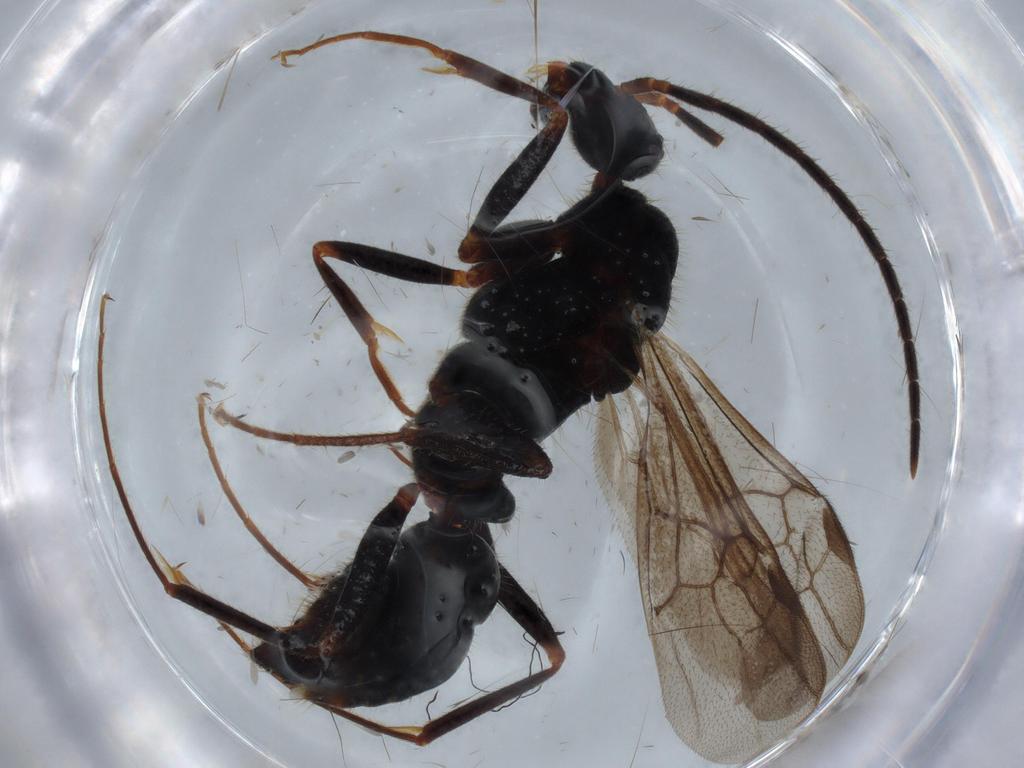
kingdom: Animalia
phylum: Arthropoda
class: Insecta
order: Hymenoptera
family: Formicidae
